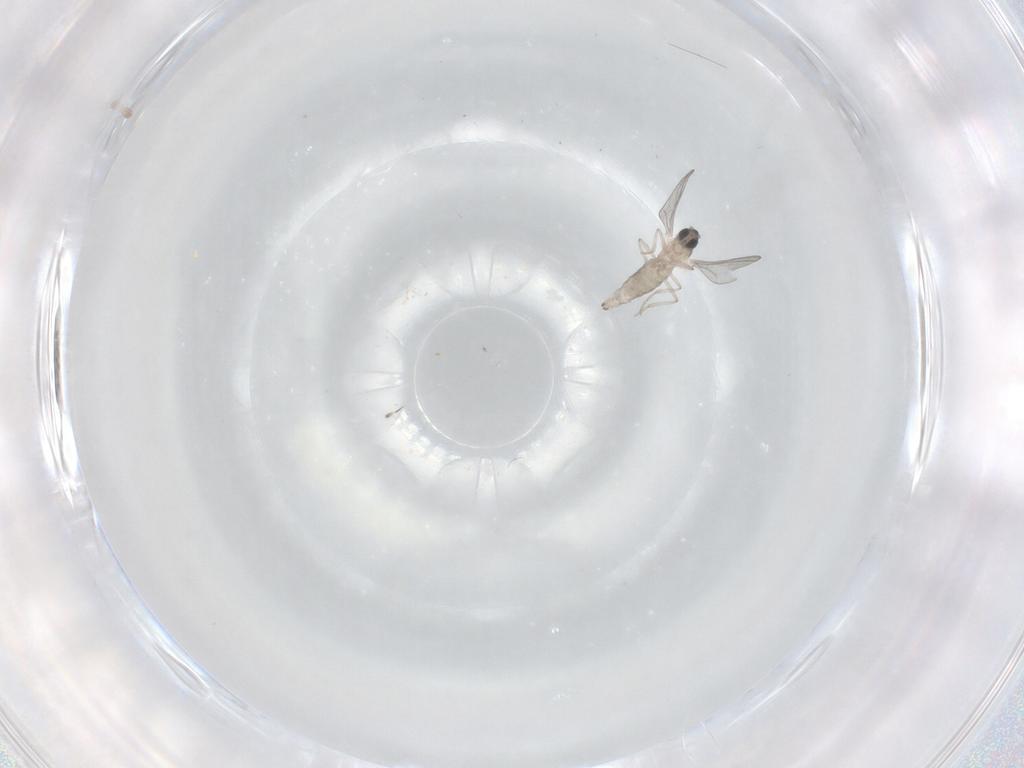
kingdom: Animalia
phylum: Arthropoda
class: Insecta
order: Diptera
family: Cecidomyiidae
